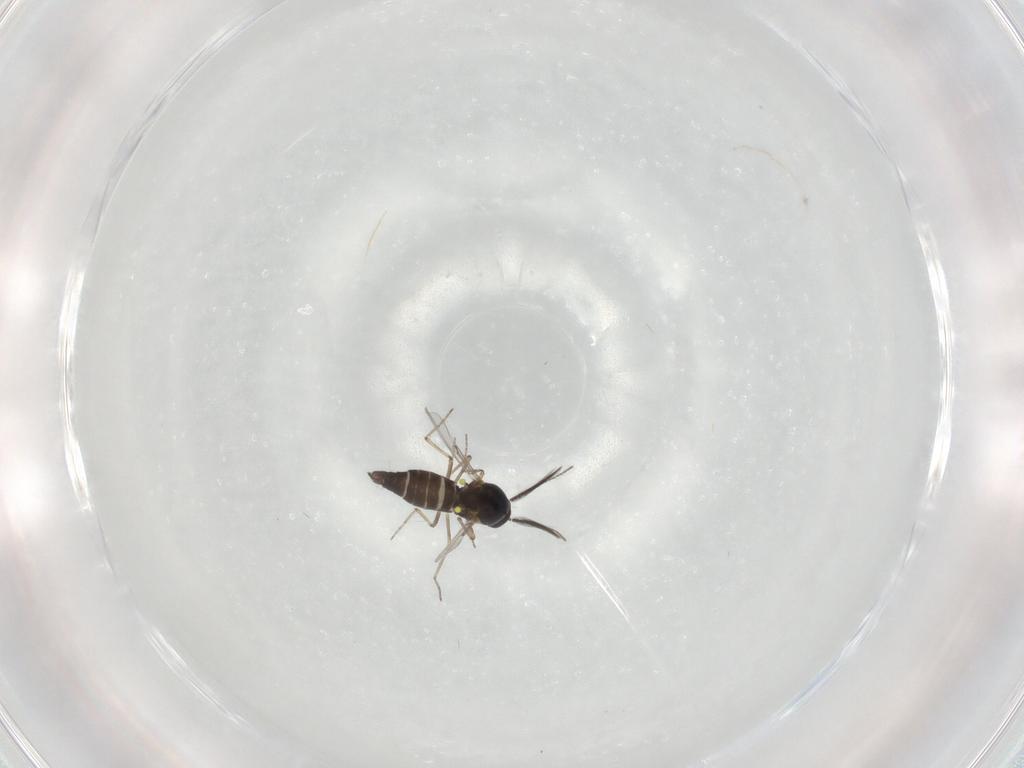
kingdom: Animalia
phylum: Arthropoda
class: Insecta
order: Diptera
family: Ceratopogonidae
